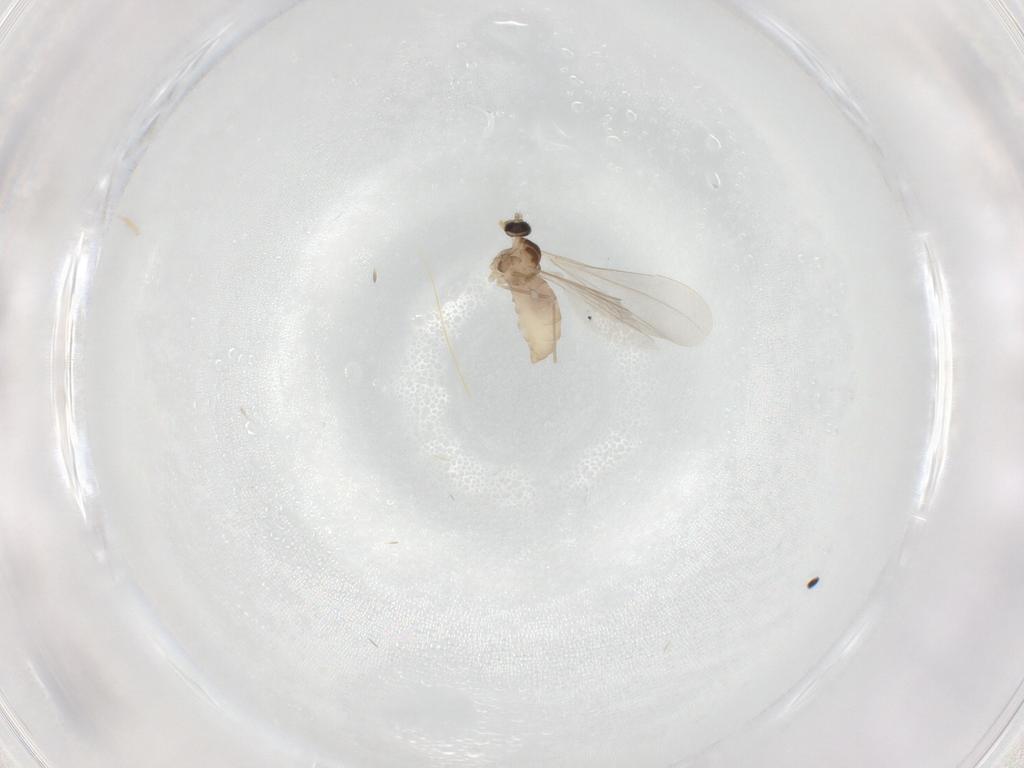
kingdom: Animalia
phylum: Arthropoda
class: Insecta
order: Diptera
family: Cecidomyiidae
